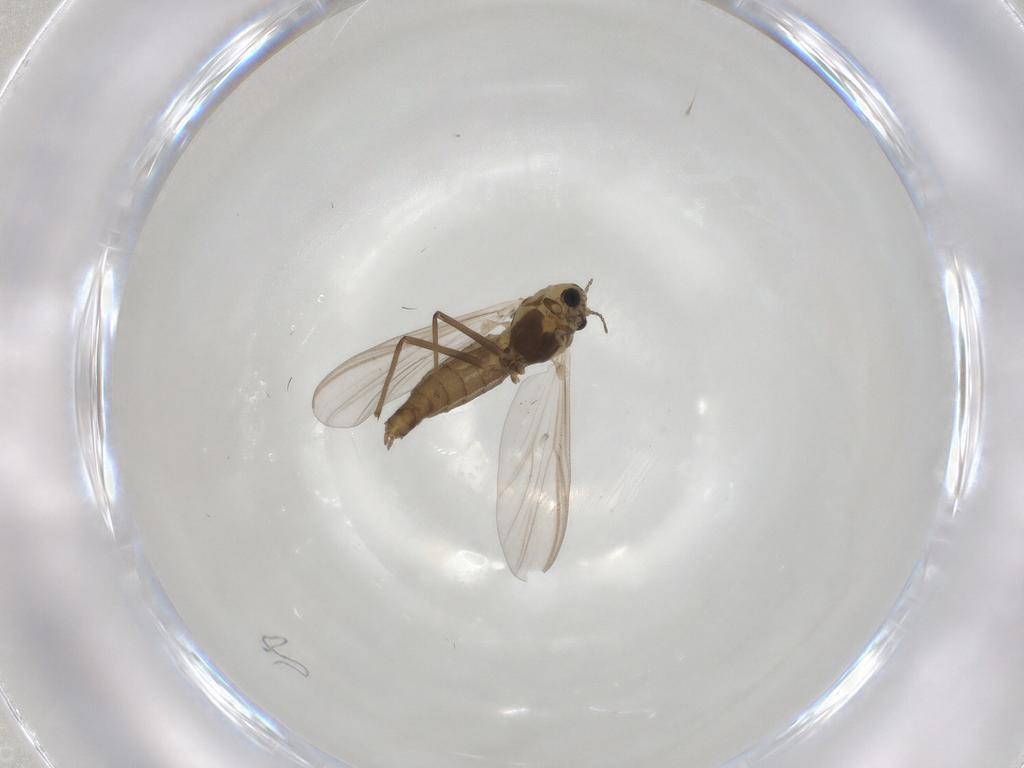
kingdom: Animalia
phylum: Arthropoda
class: Insecta
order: Diptera
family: Chironomidae
